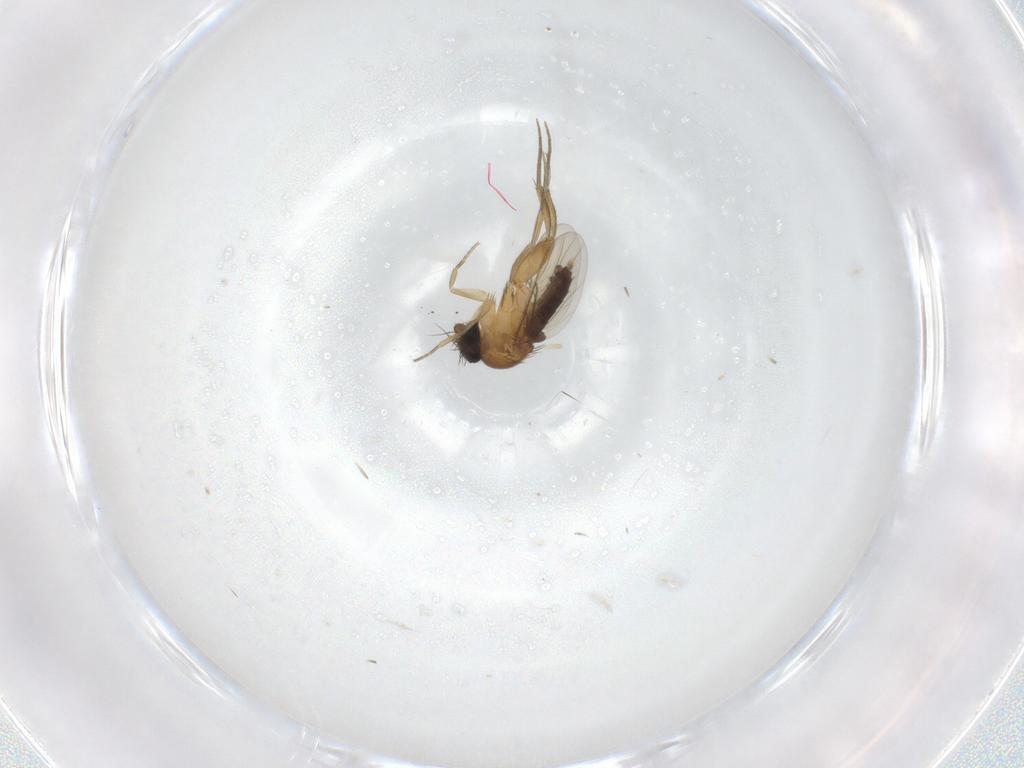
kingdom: Animalia
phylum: Arthropoda
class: Insecta
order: Diptera
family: Phoridae
